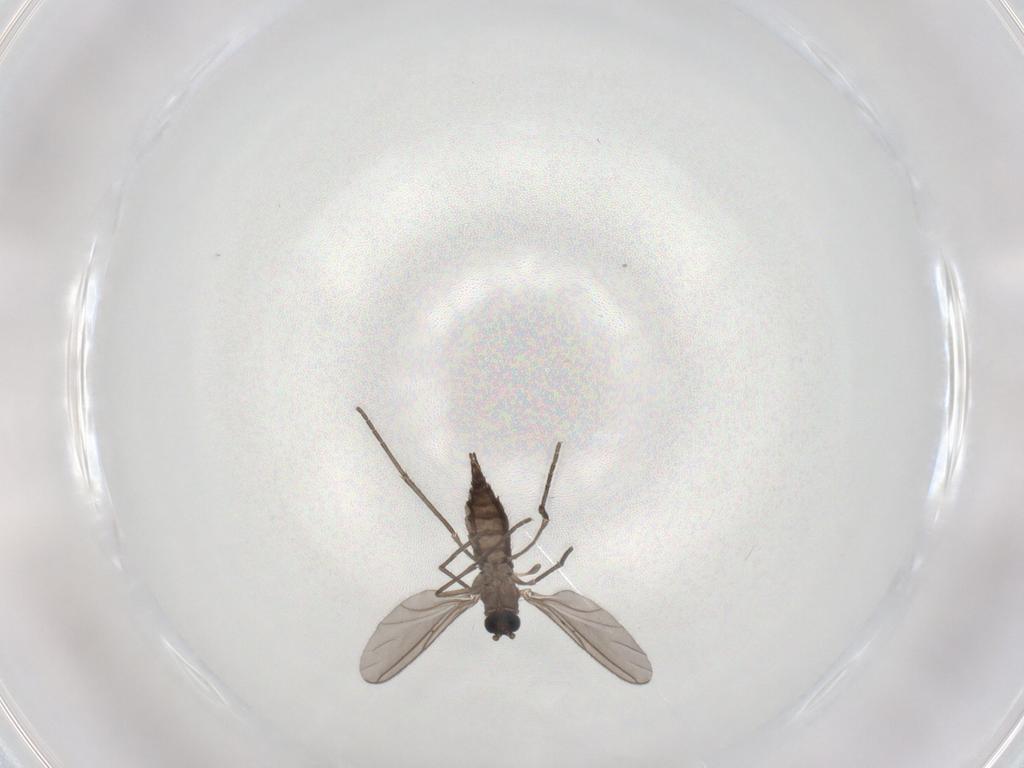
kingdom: Animalia
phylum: Arthropoda
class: Insecta
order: Diptera
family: Sciaridae
